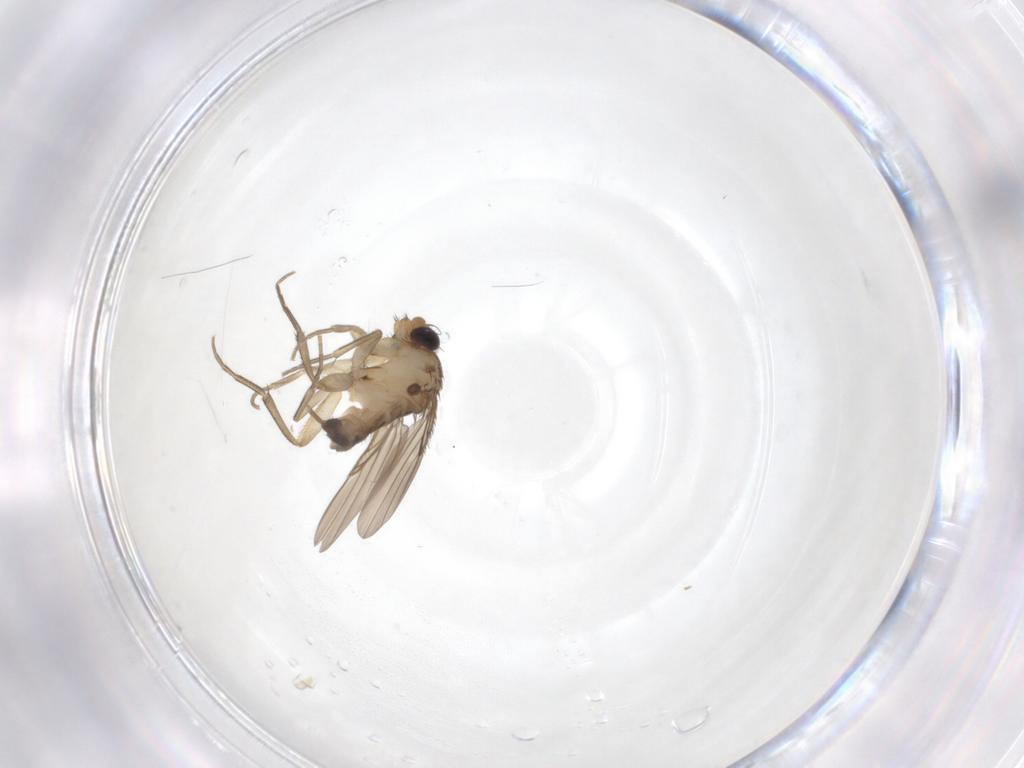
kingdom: Animalia
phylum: Arthropoda
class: Insecta
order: Diptera
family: Phoridae
